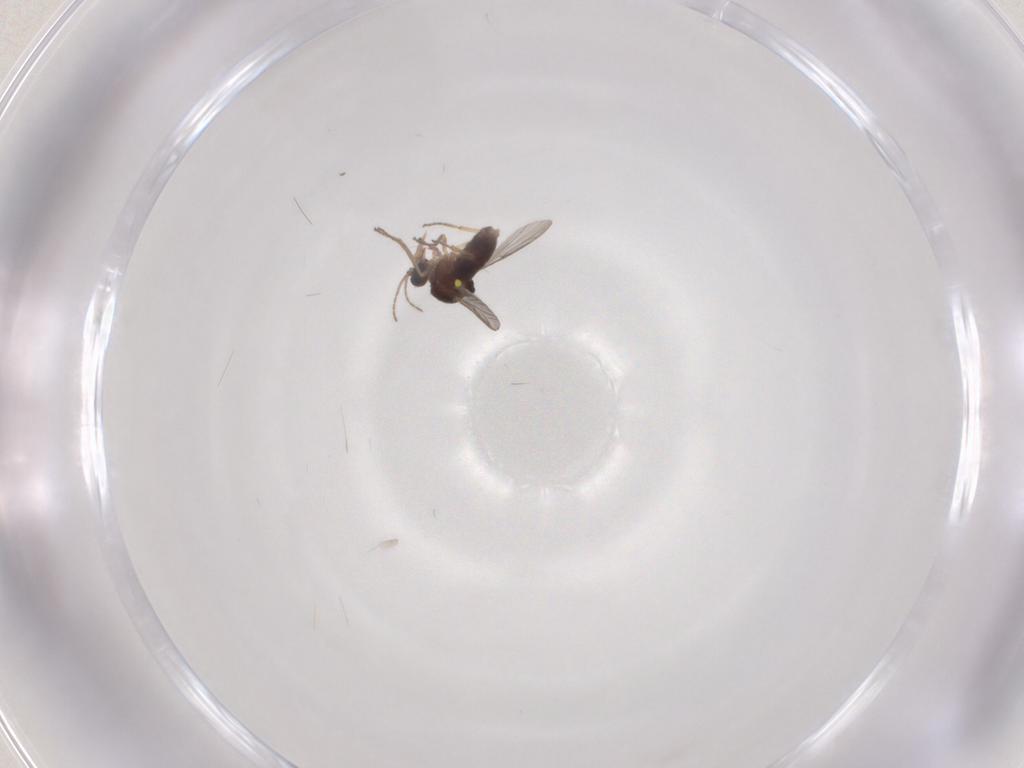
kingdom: Animalia
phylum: Arthropoda
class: Insecta
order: Diptera
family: Ceratopogonidae
